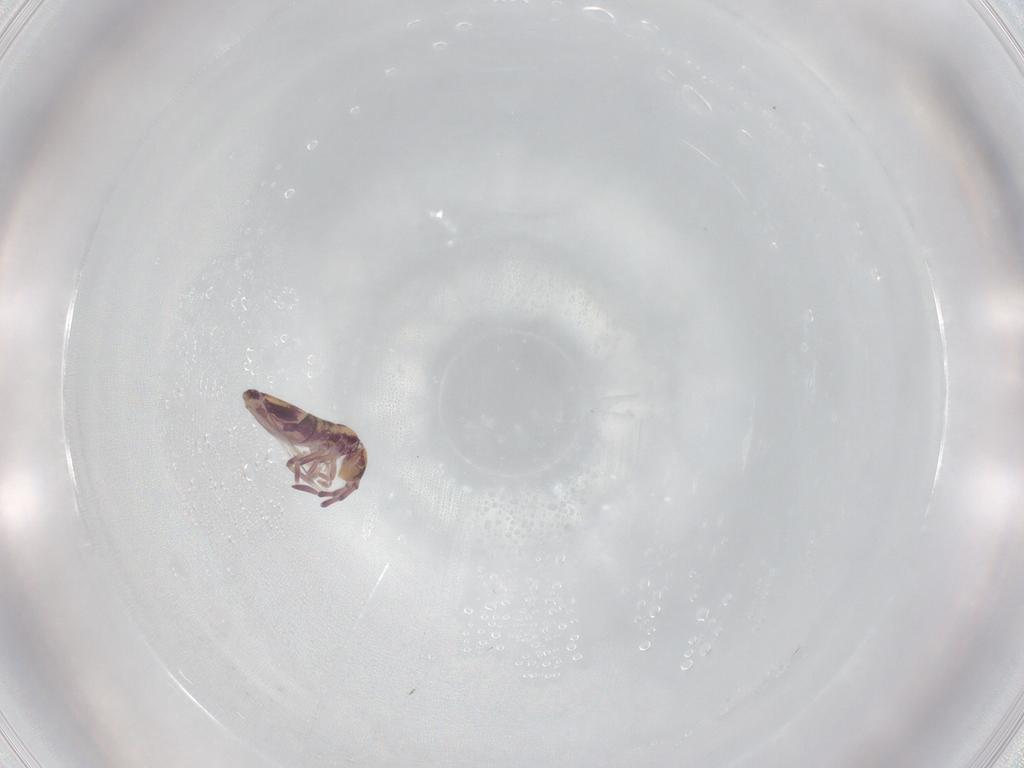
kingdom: Animalia
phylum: Arthropoda
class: Collembola
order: Entomobryomorpha
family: Entomobryidae
